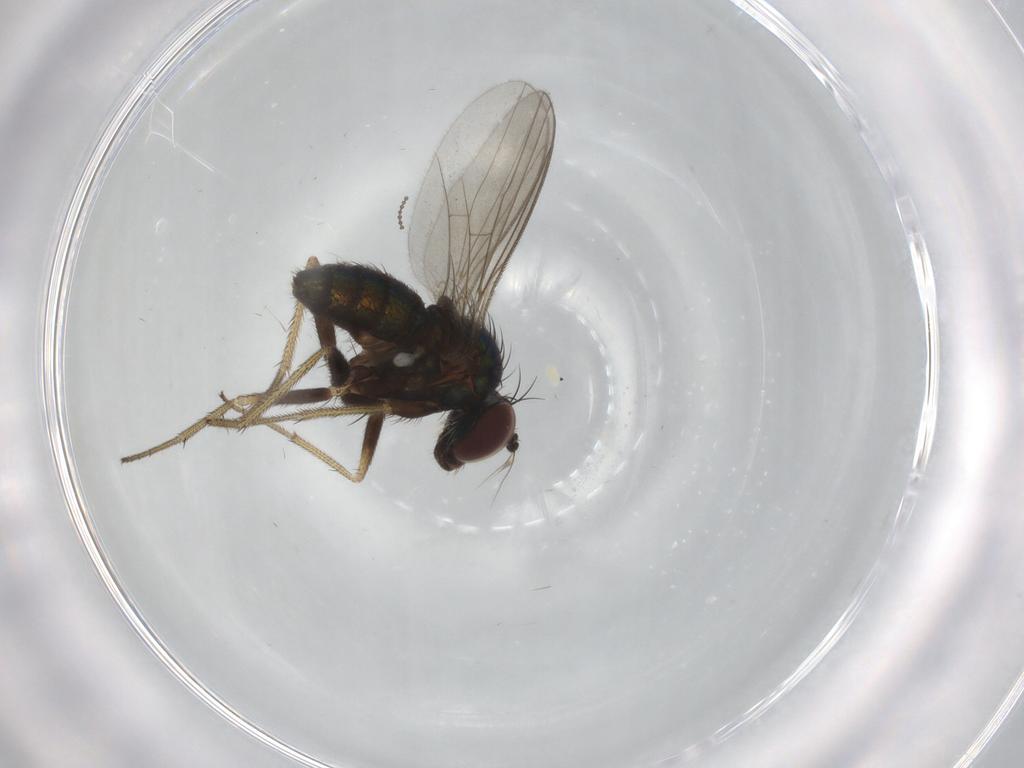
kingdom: Animalia
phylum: Arthropoda
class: Insecta
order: Diptera
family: Dolichopodidae
